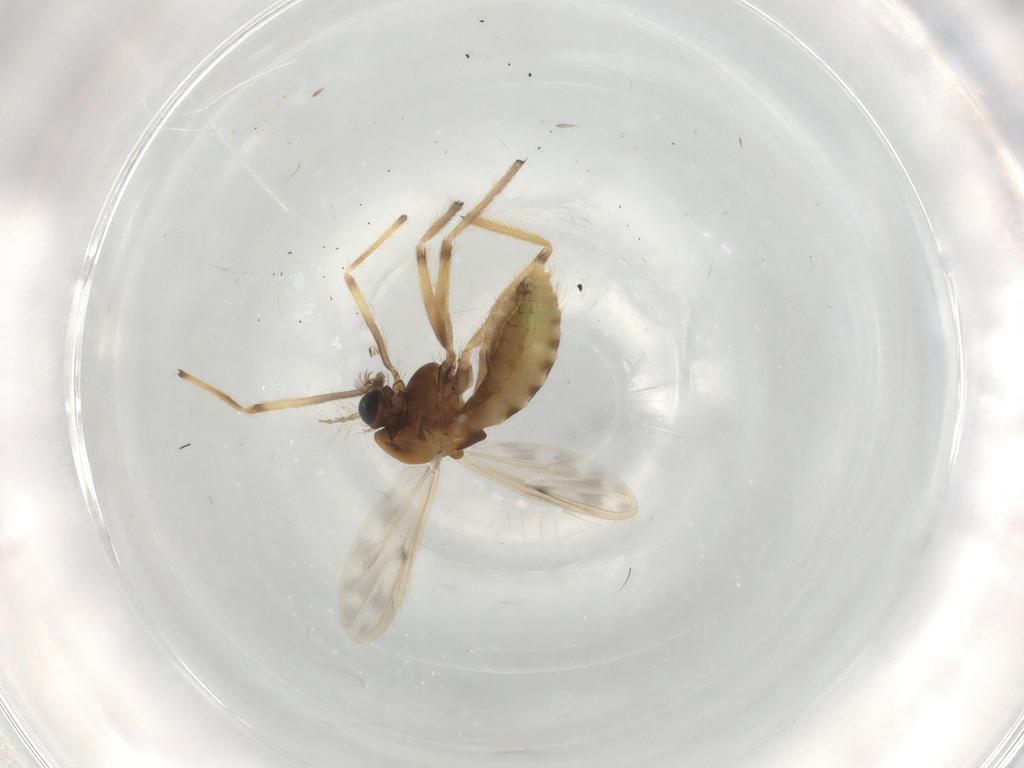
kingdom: Animalia
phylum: Arthropoda
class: Insecta
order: Diptera
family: Chironomidae
